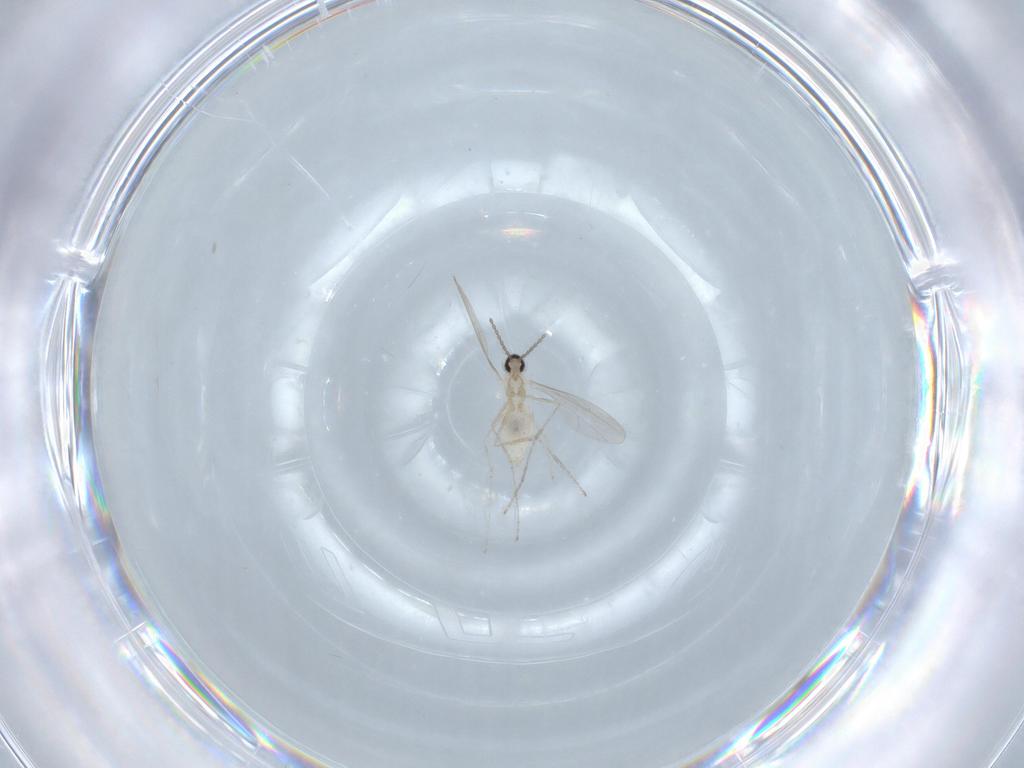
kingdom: Animalia
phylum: Arthropoda
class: Insecta
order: Diptera
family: Cecidomyiidae
